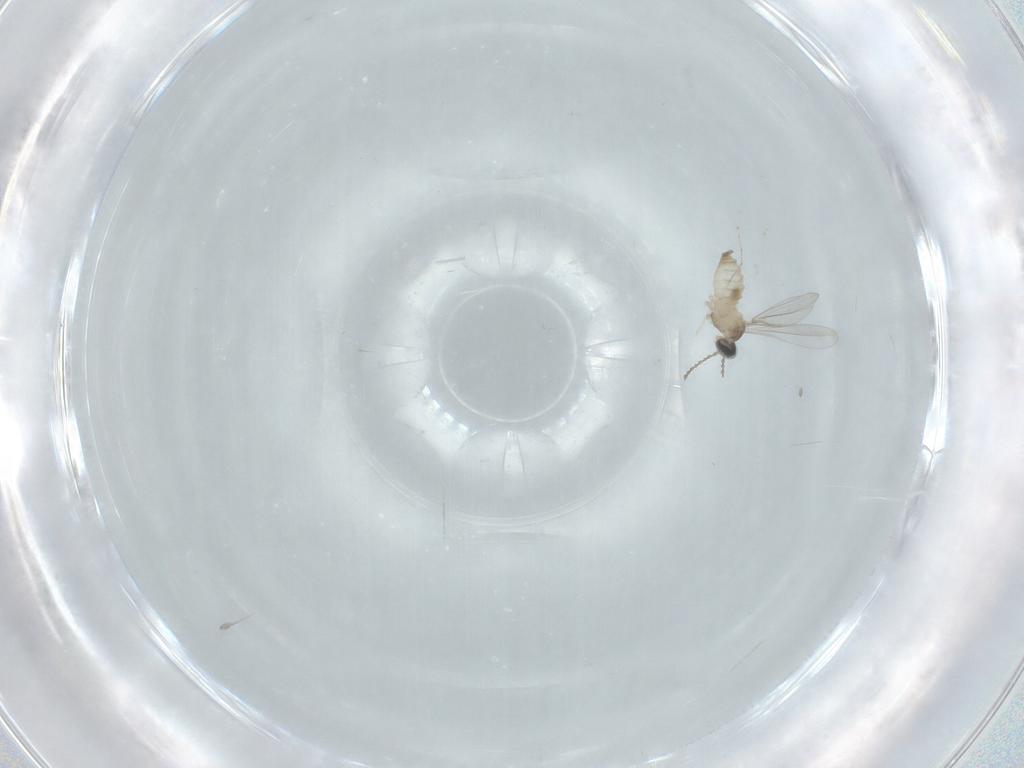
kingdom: Animalia
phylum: Arthropoda
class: Insecta
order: Diptera
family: Cecidomyiidae
